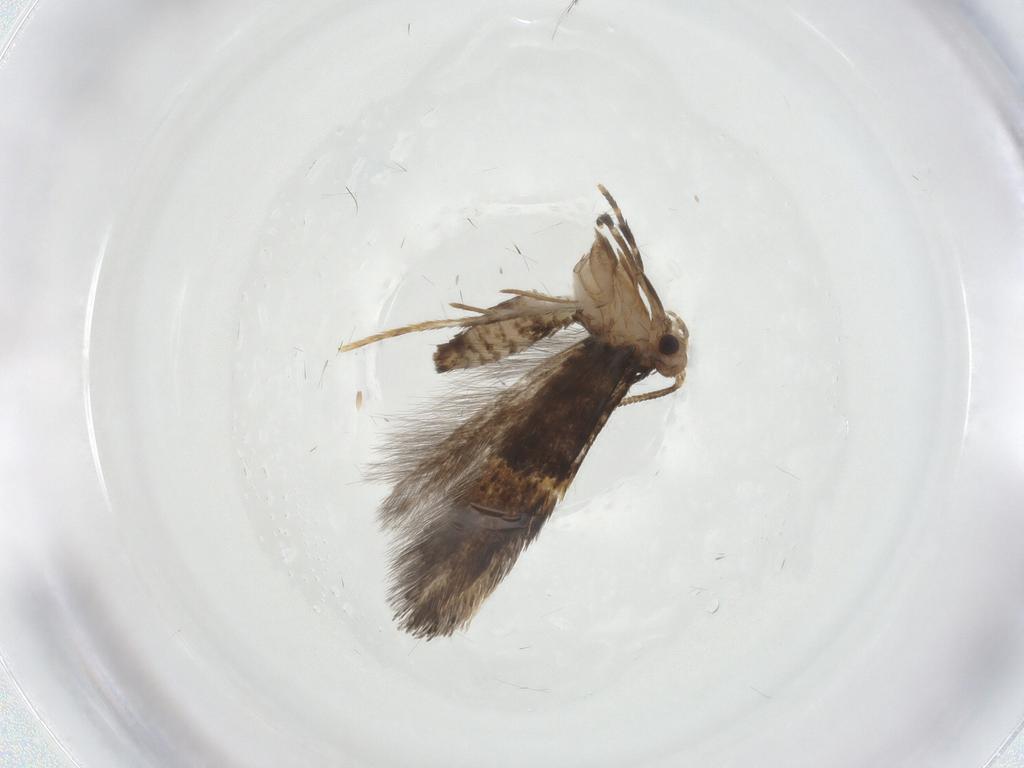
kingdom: Animalia
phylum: Arthropoda
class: Insecta
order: Lepidoptera
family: Tineidae
